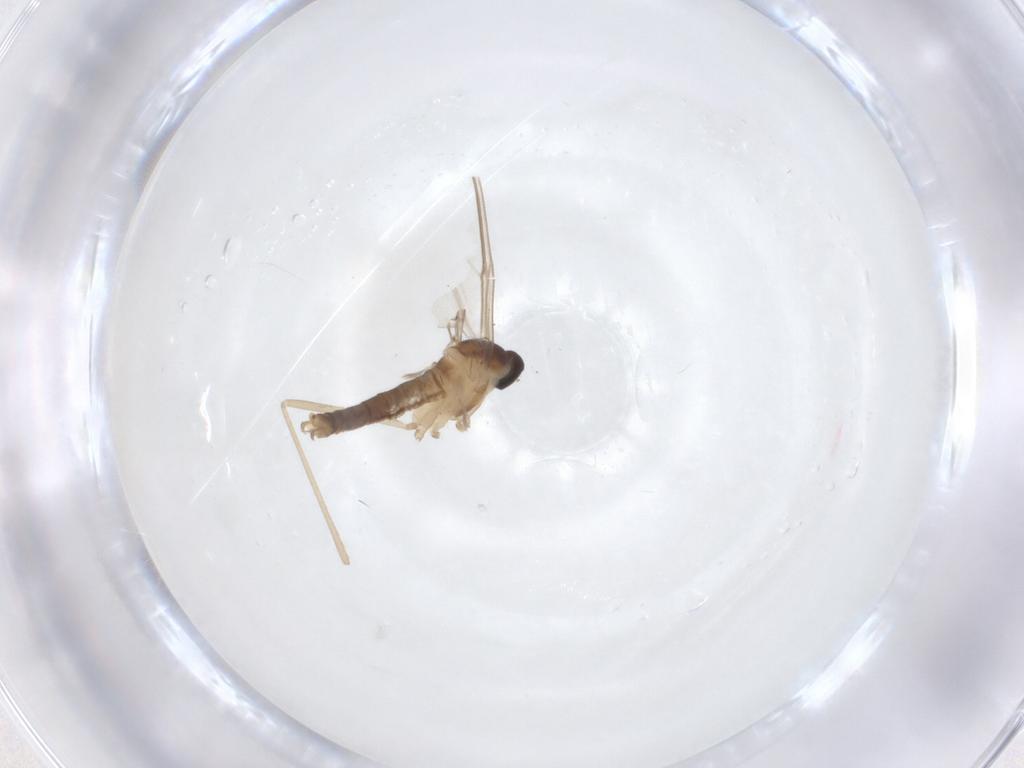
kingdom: Animalia
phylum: Arthropoda
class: Insecta
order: Diptera
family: Cecidomyiidae
